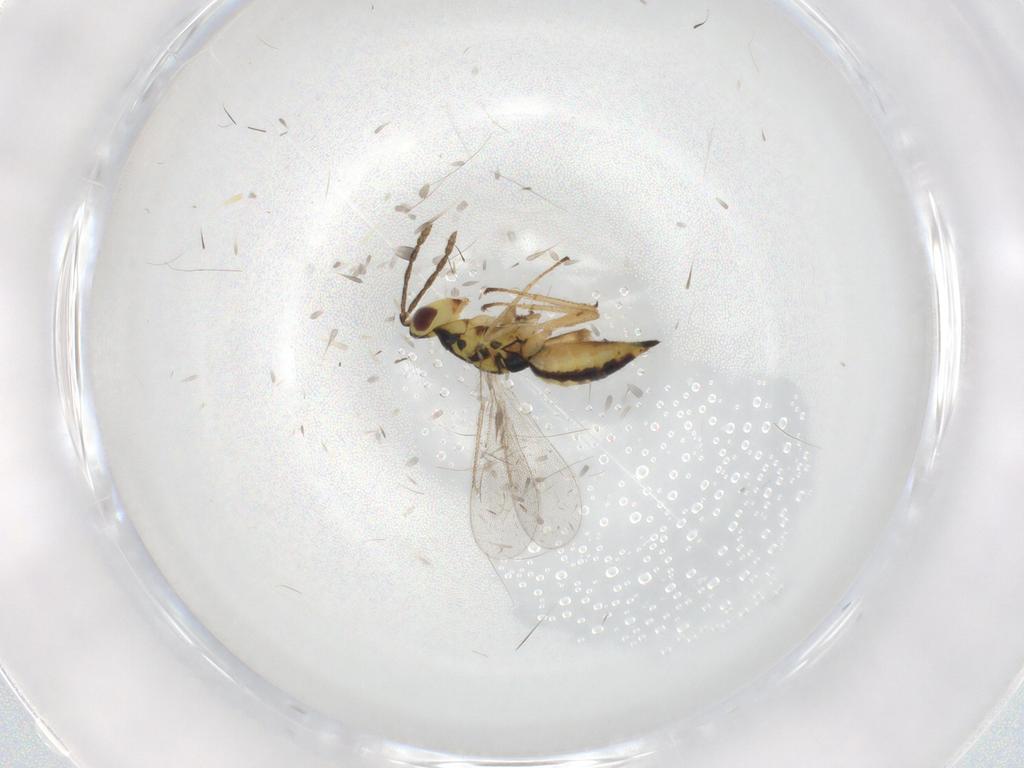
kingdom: Animalia
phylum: Arthropoda
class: Insecta
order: Hymenoptera
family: Eulophidae
